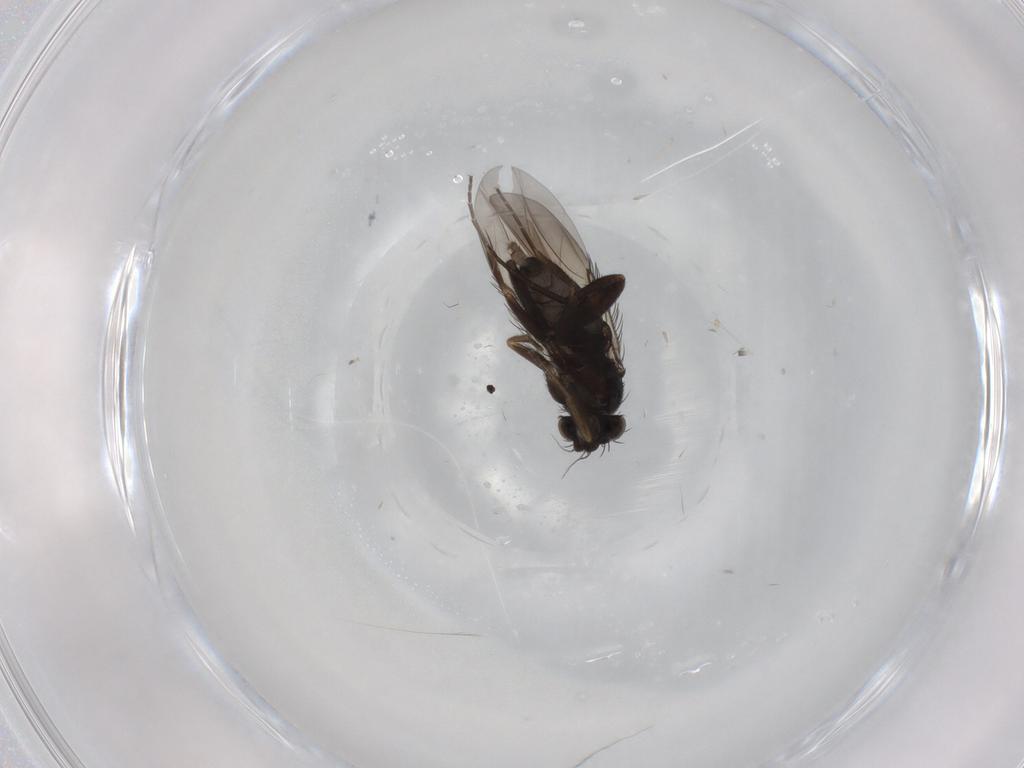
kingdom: Animalia
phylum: Arthropoda
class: Insecta
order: Diptera
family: Phoridae
